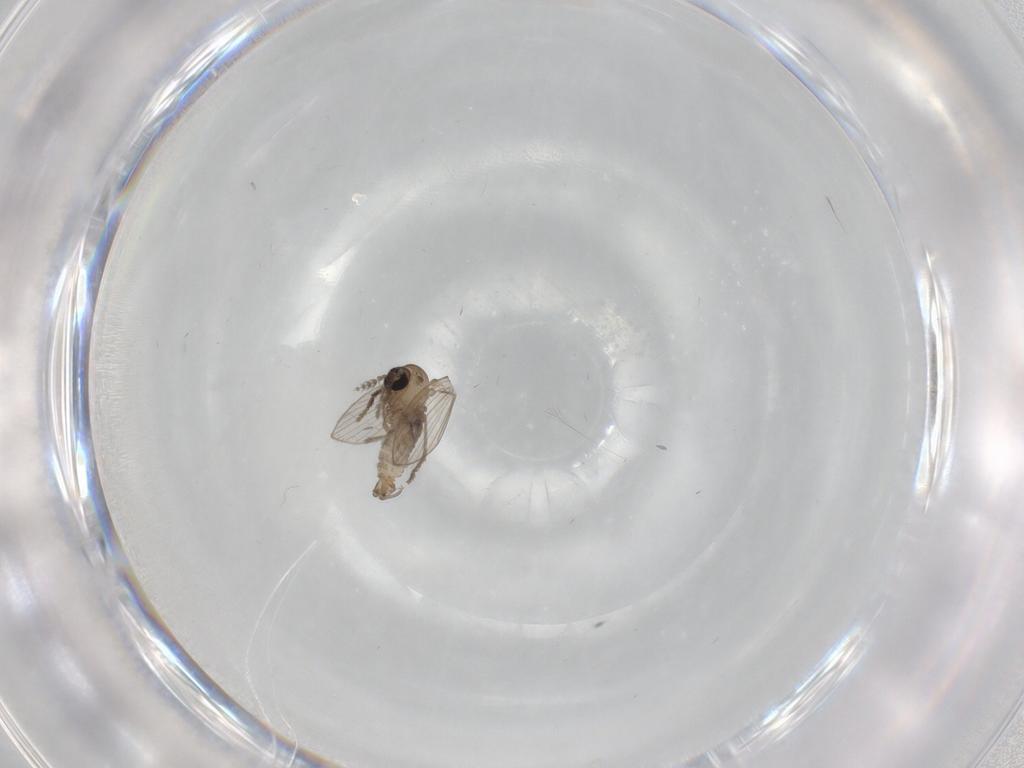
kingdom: Animalia
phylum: Arthropoda
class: Insecta
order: Diptera
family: Psychodidae
